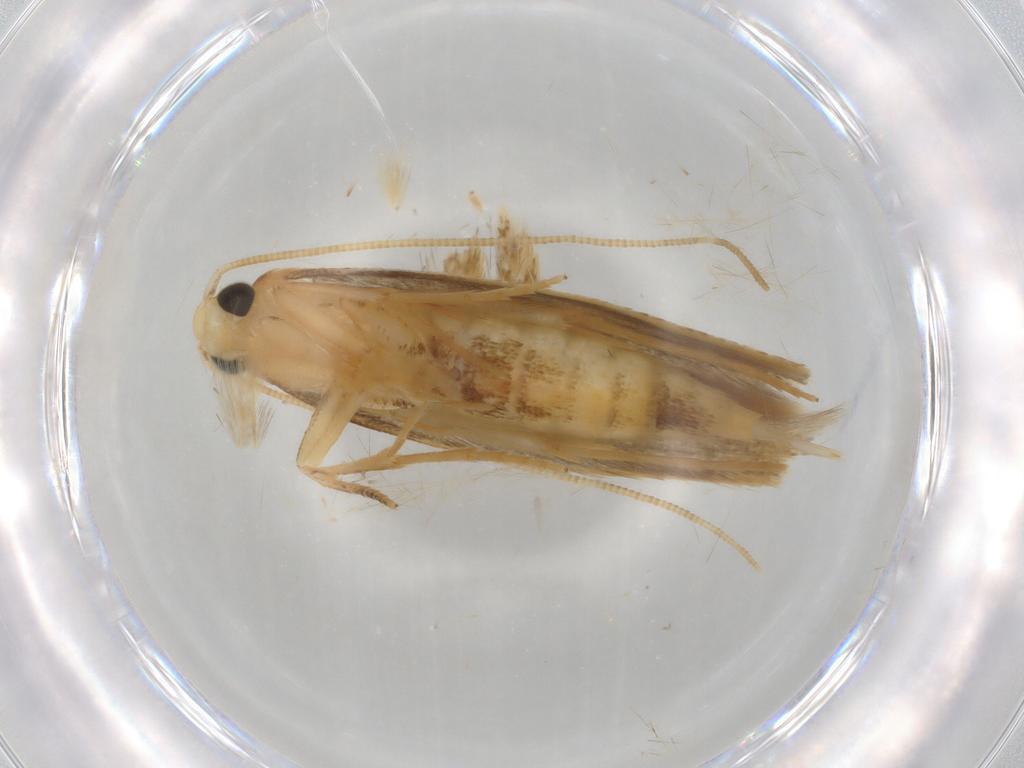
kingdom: Animalia
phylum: Arthropoda
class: Insecta
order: Lepidoptera
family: Tineidae
